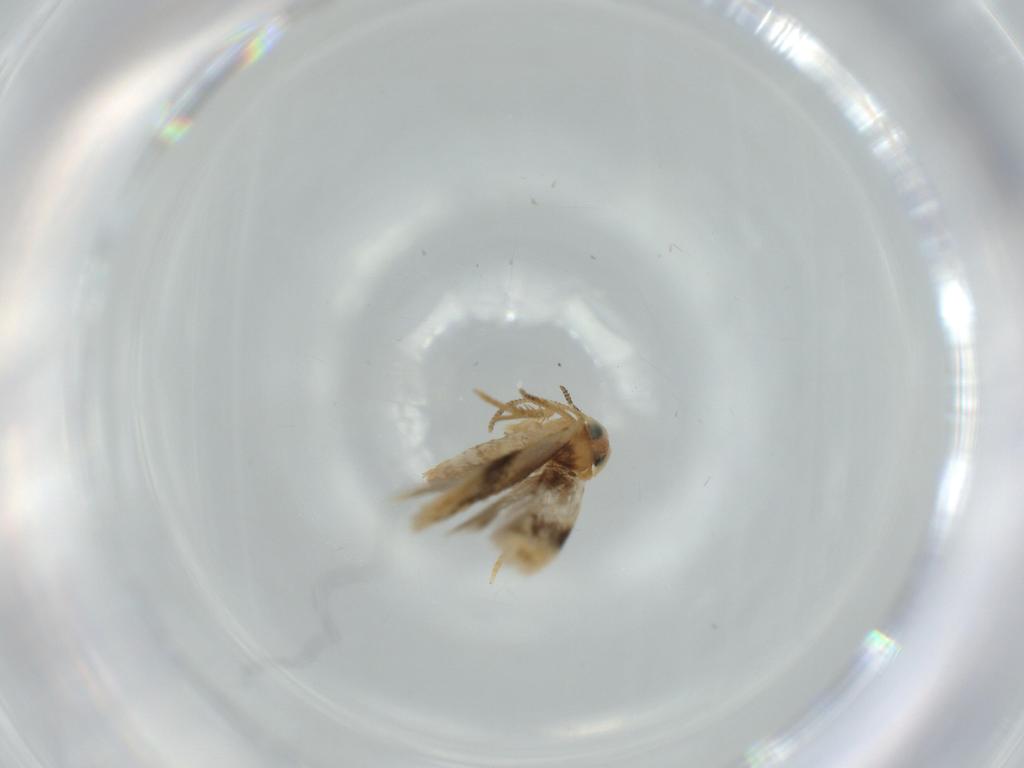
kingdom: Animalia
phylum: Arthropoda
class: Insecta
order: Lepidoptera
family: Nepticulidae
